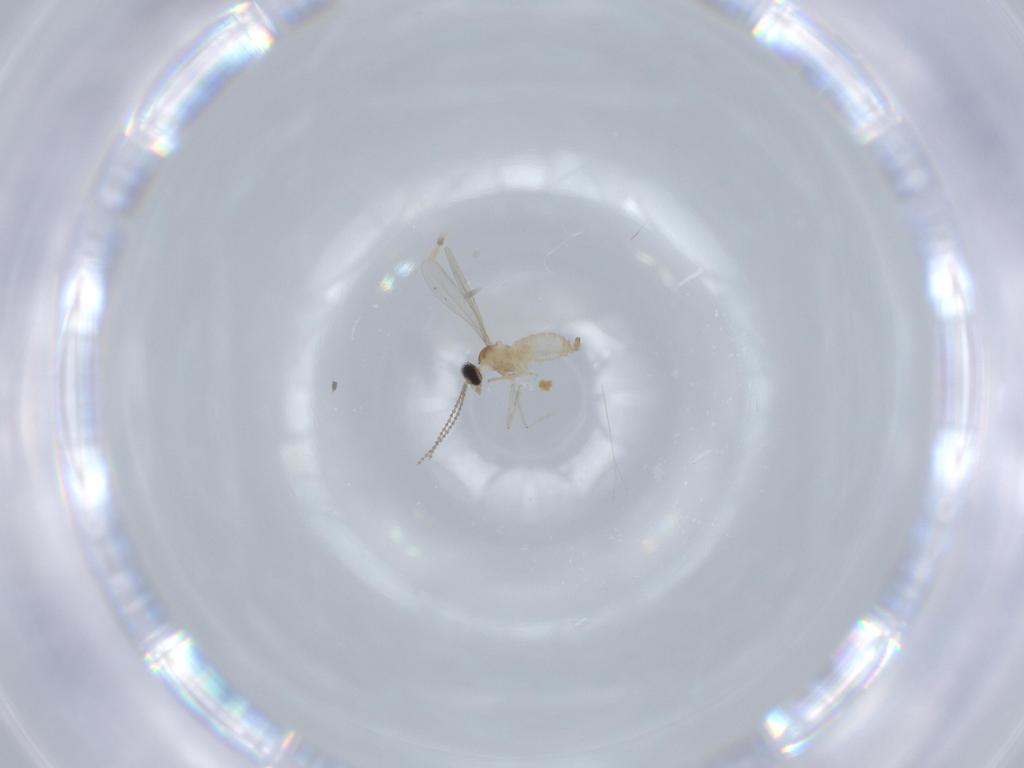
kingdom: Animalia
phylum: Arthropoda
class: Insecta
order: Diptera
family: Cecidomyiidae
